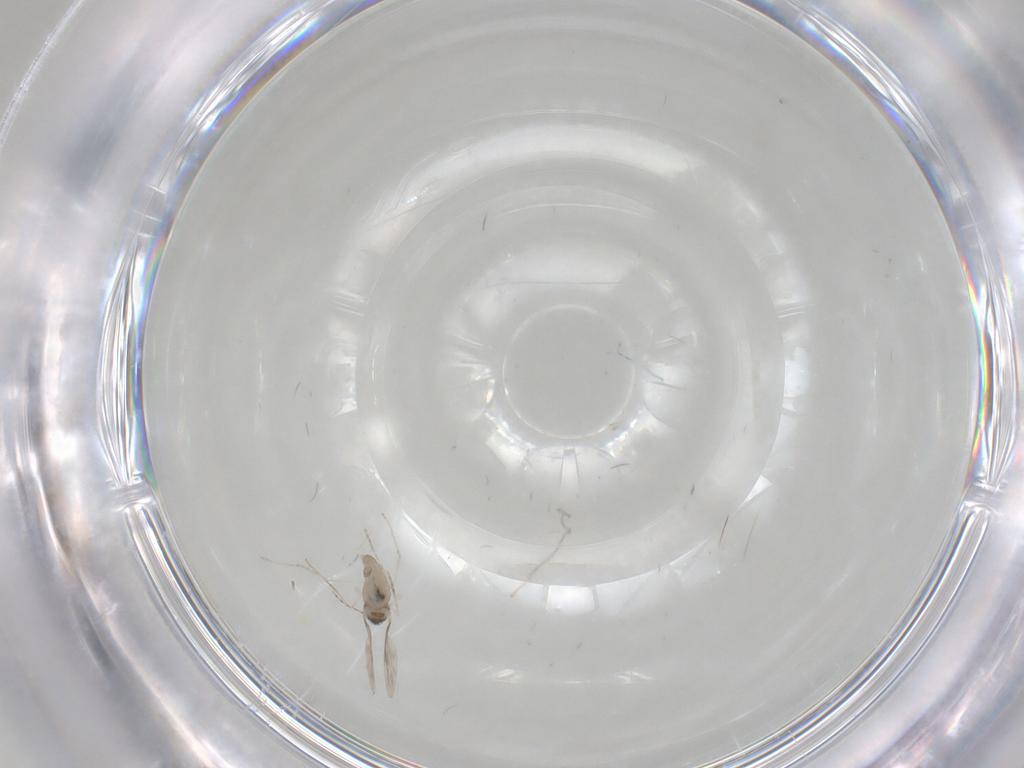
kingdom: Animalia
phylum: Arthropoda
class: Insecta
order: Diptera
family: Cecidomyiidae
